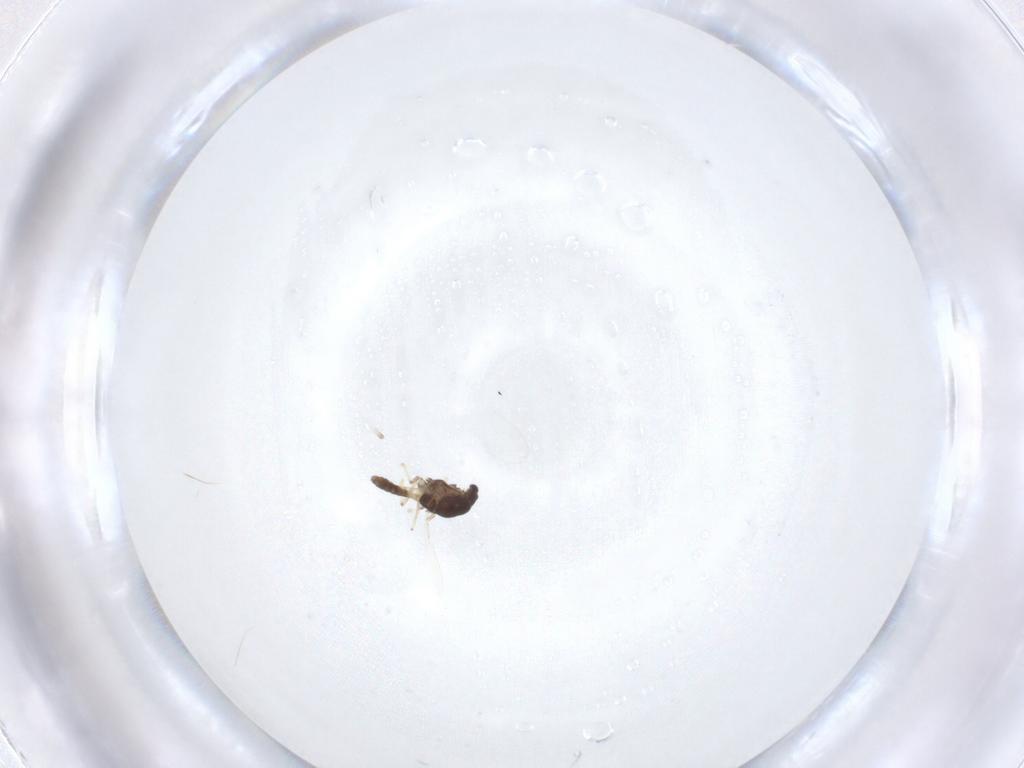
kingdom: Animalia
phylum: Arthropoda
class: Insecta
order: Diptera
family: Chironomidae
